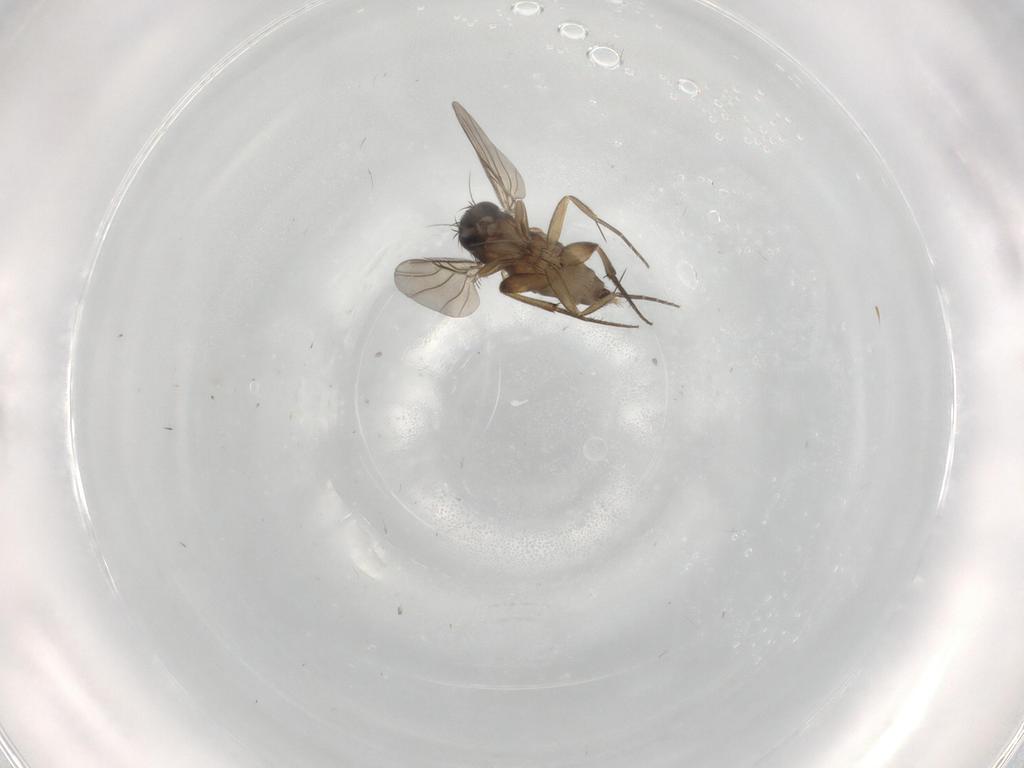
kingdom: Animalia
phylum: Arthropoda
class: Insecta
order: Diptera
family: Phoridae
